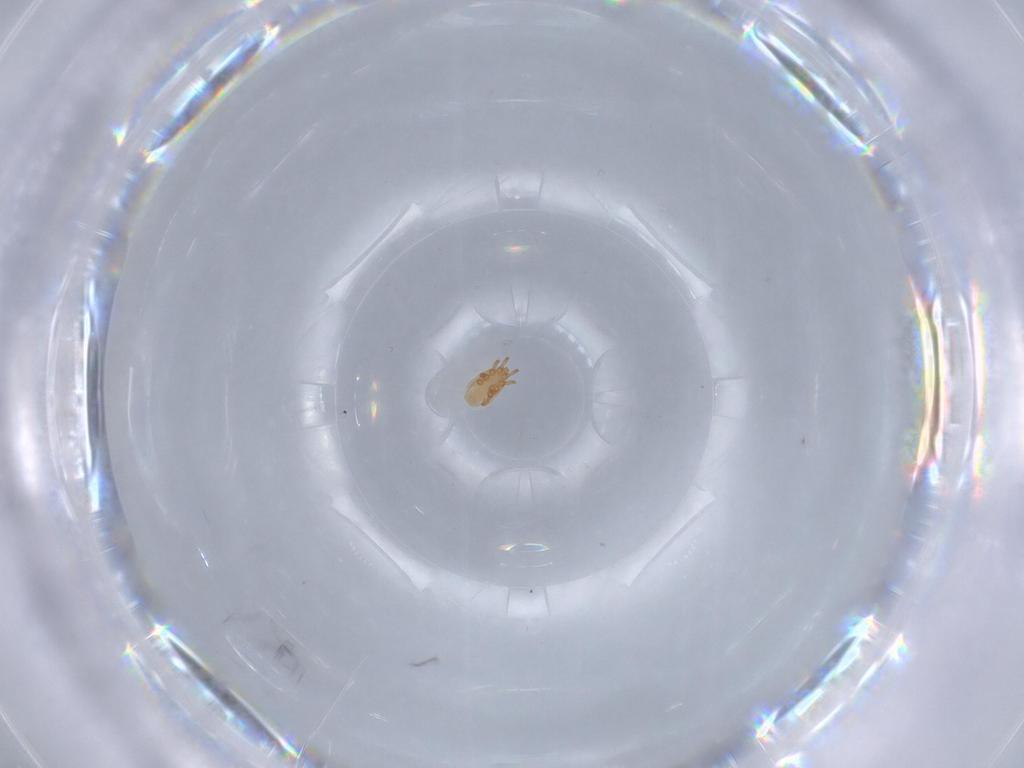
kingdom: Animalia
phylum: Arthropoda
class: Arachnida
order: Mesostigmata
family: Dinychidae
